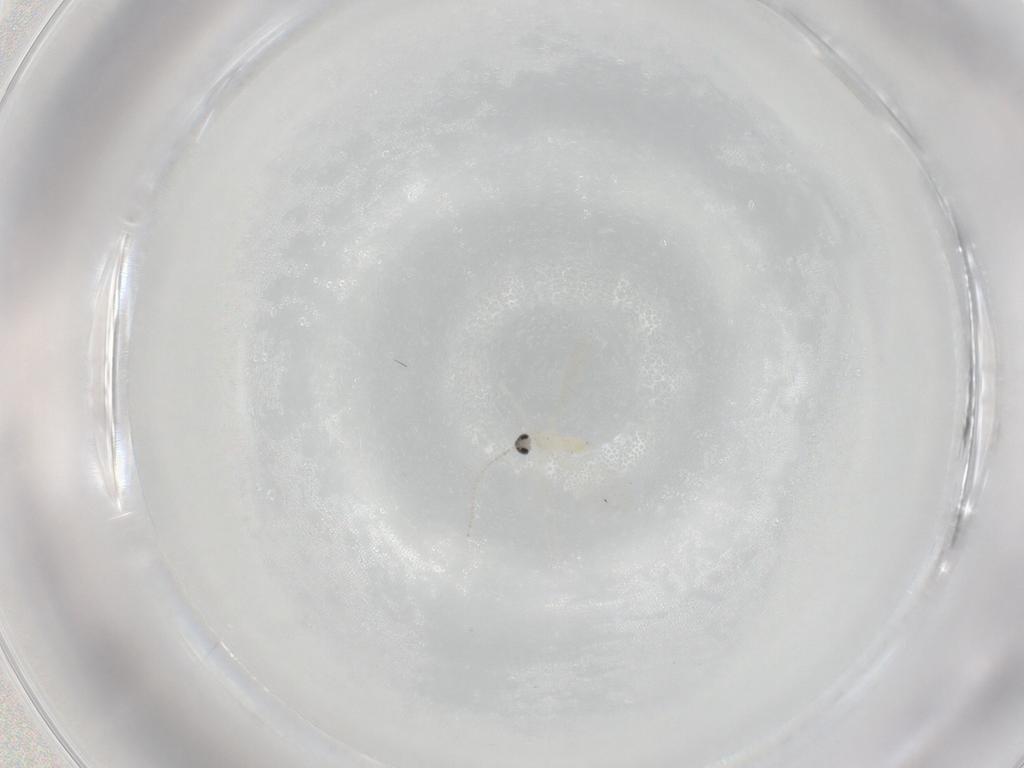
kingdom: Animalia
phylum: Arthropoda
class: Insecta
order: Diptera
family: Cecidomyiidae
